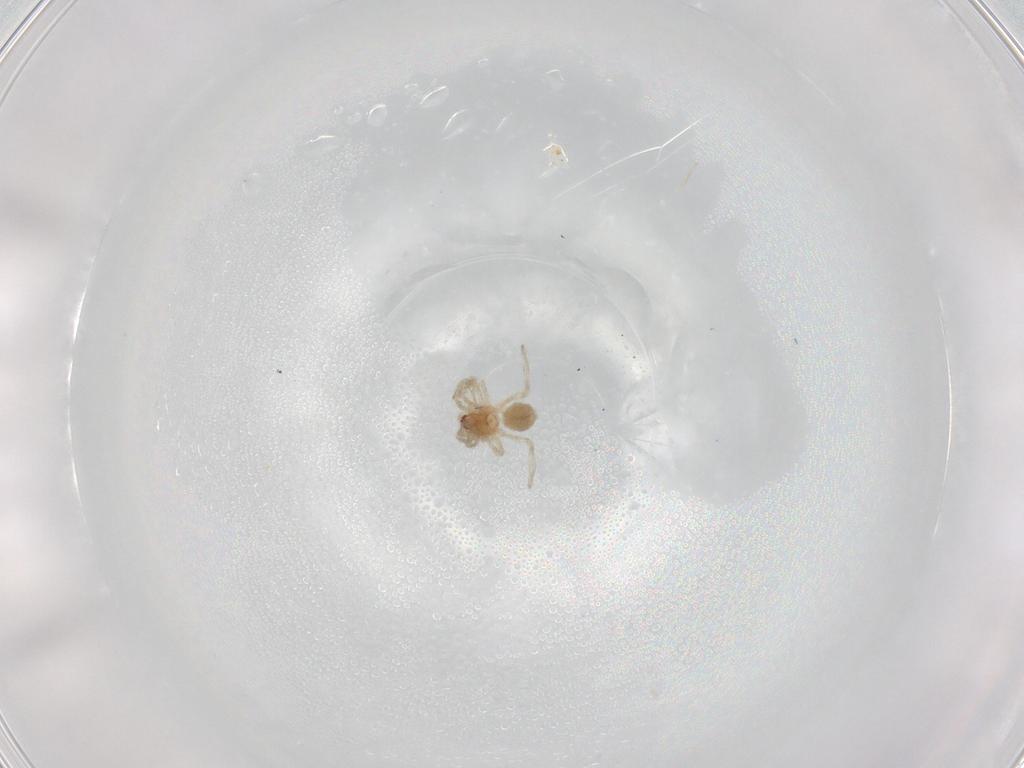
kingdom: Animalia
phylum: Arthropoda
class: Arachnida
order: Araneae
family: Dictynidae
